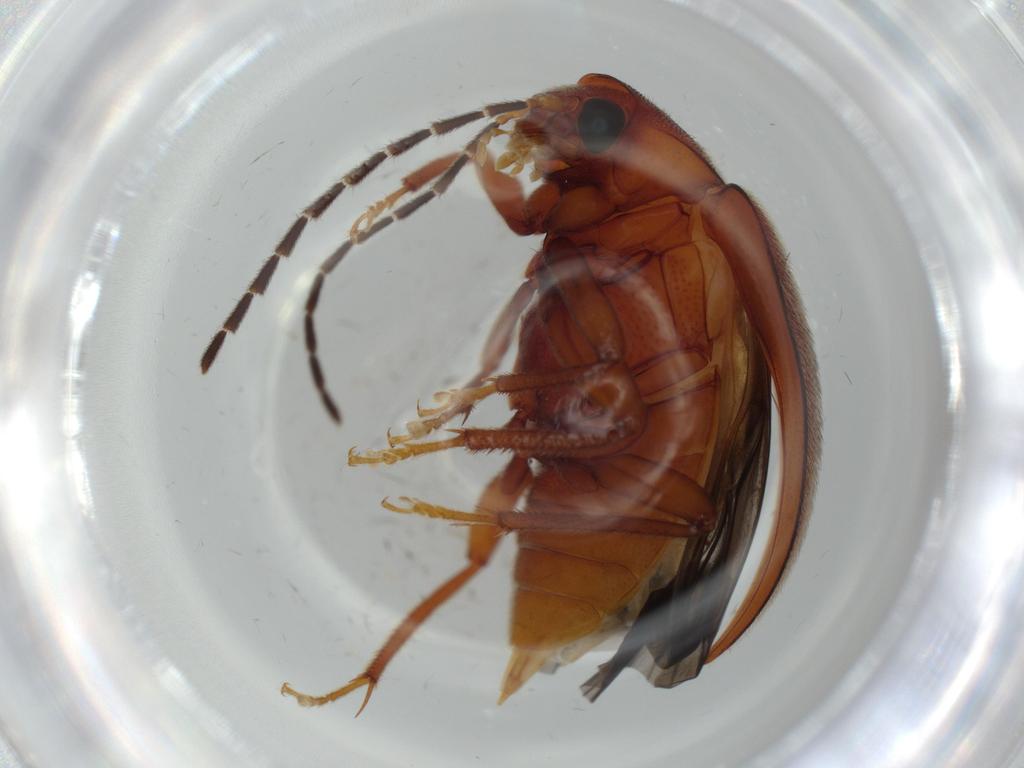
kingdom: Animalia
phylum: Arthropoda
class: Insecta
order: Coleoptera
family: Ptilodactylidae
